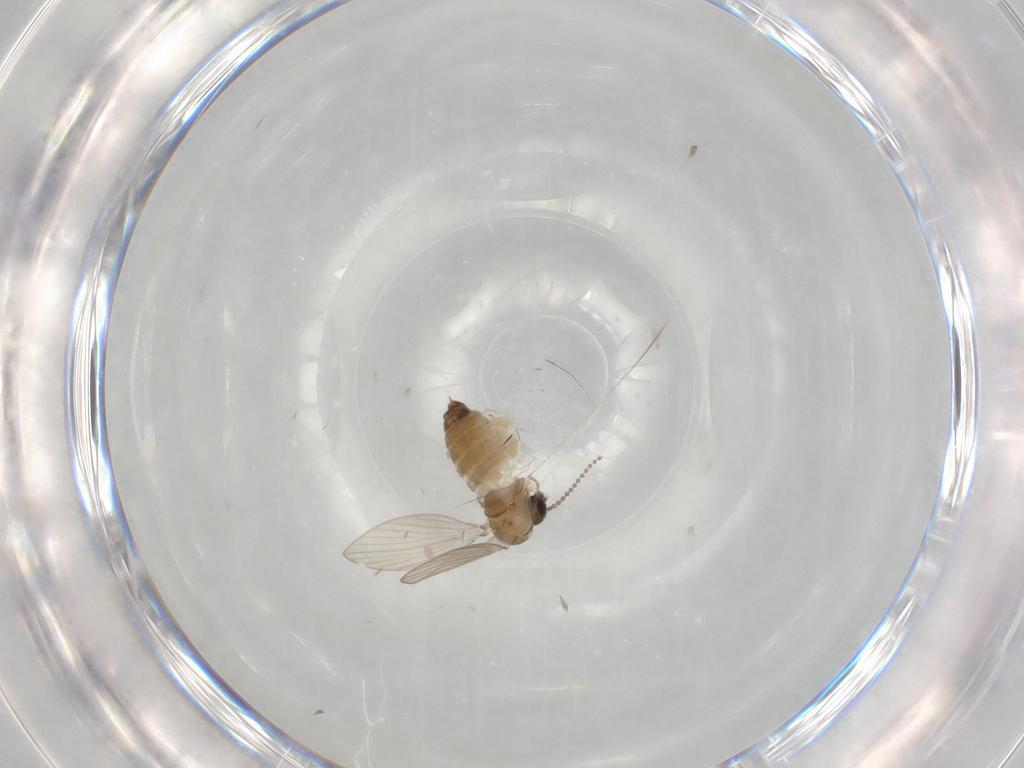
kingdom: Animalia
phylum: Arthropoda
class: Insecta
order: Diptera
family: Psychodidae
